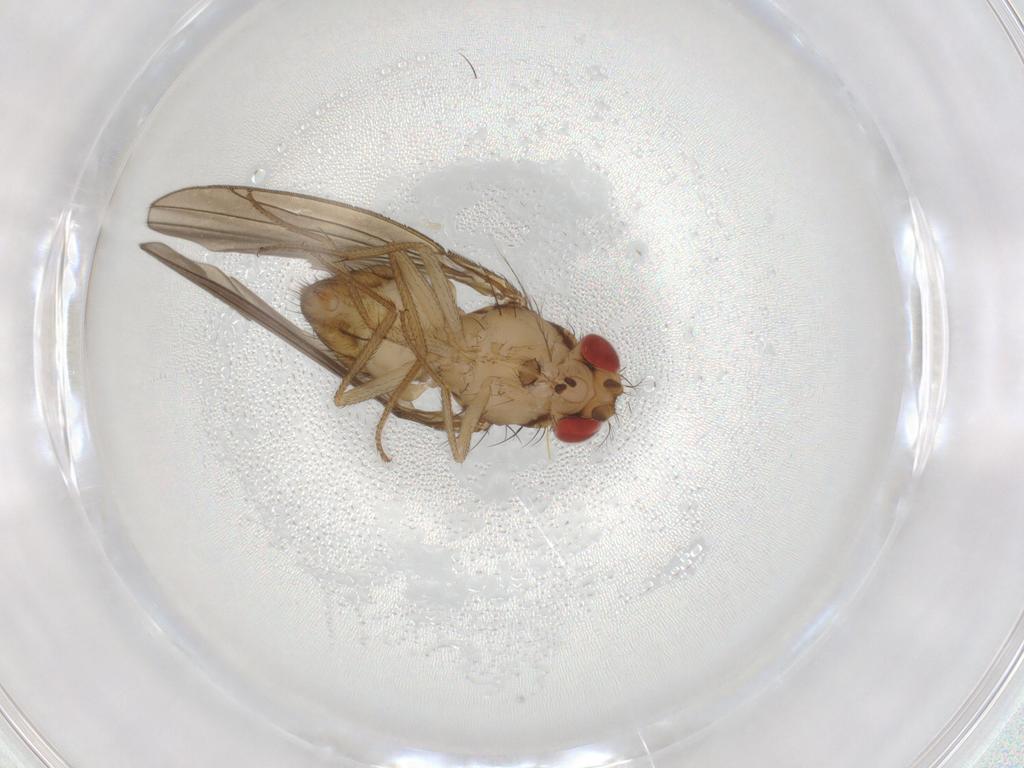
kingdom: Animalia
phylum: Arthropoda
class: Insecta
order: Diptera
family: Drosophilidae
